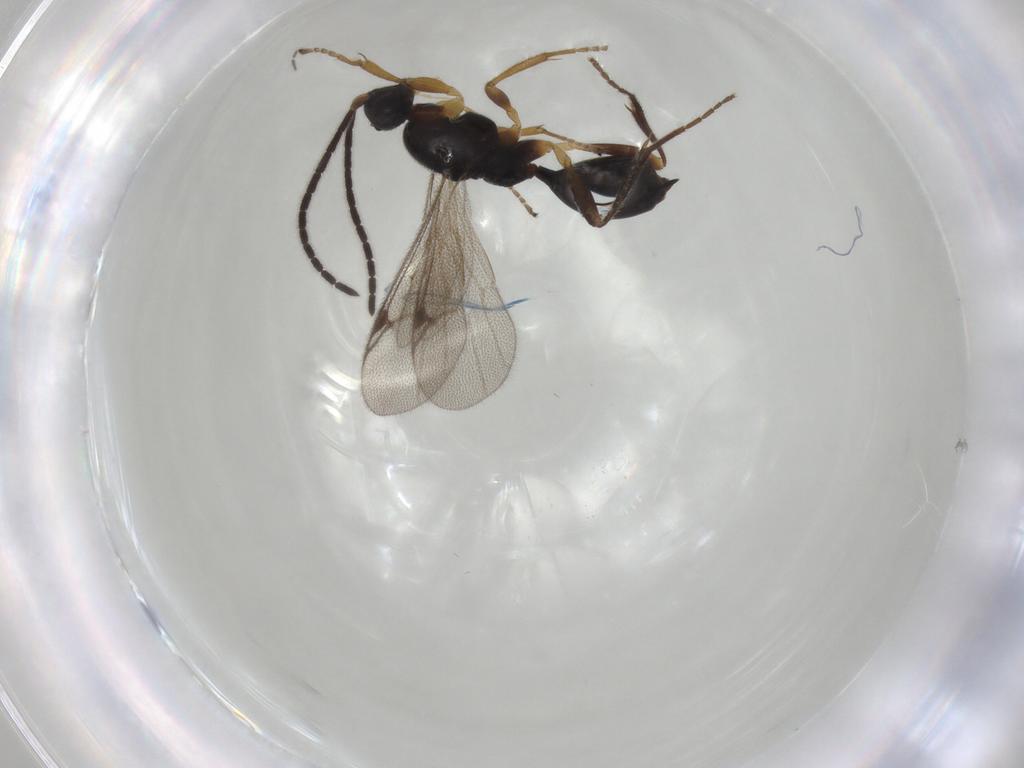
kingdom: Animalia
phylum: Arthropoda
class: Insecta
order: Hymenoptera
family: Proctotrupidae
